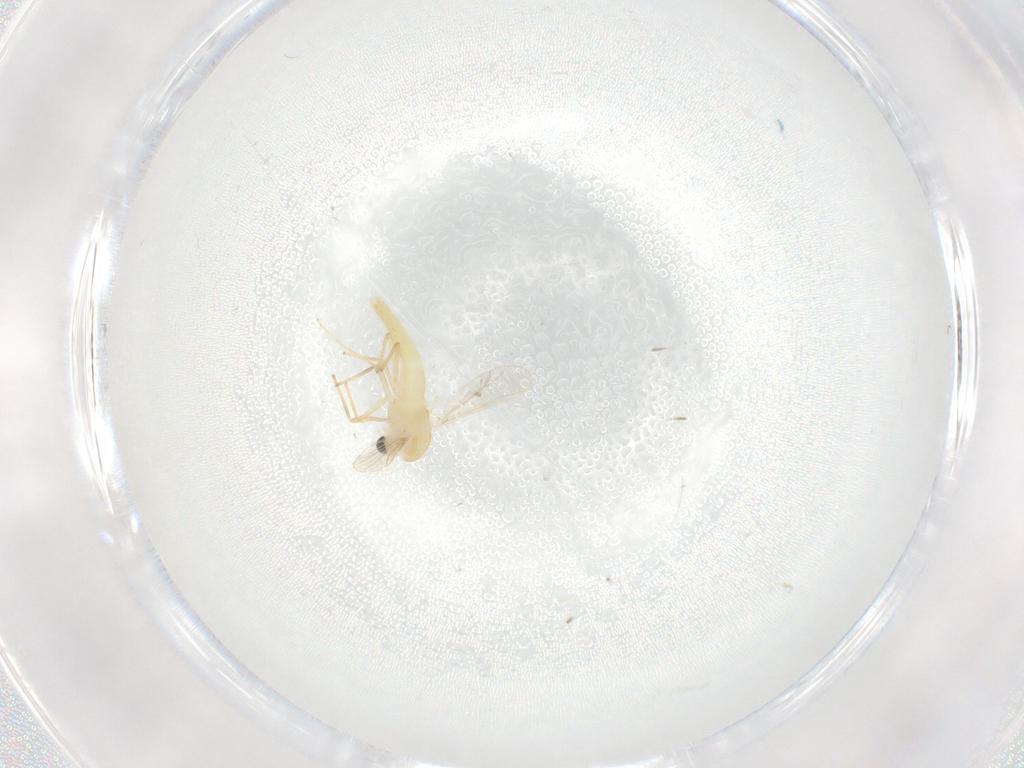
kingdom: Animalia
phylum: Arthropoda
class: Insecta
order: Diptera
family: Chironomidae
